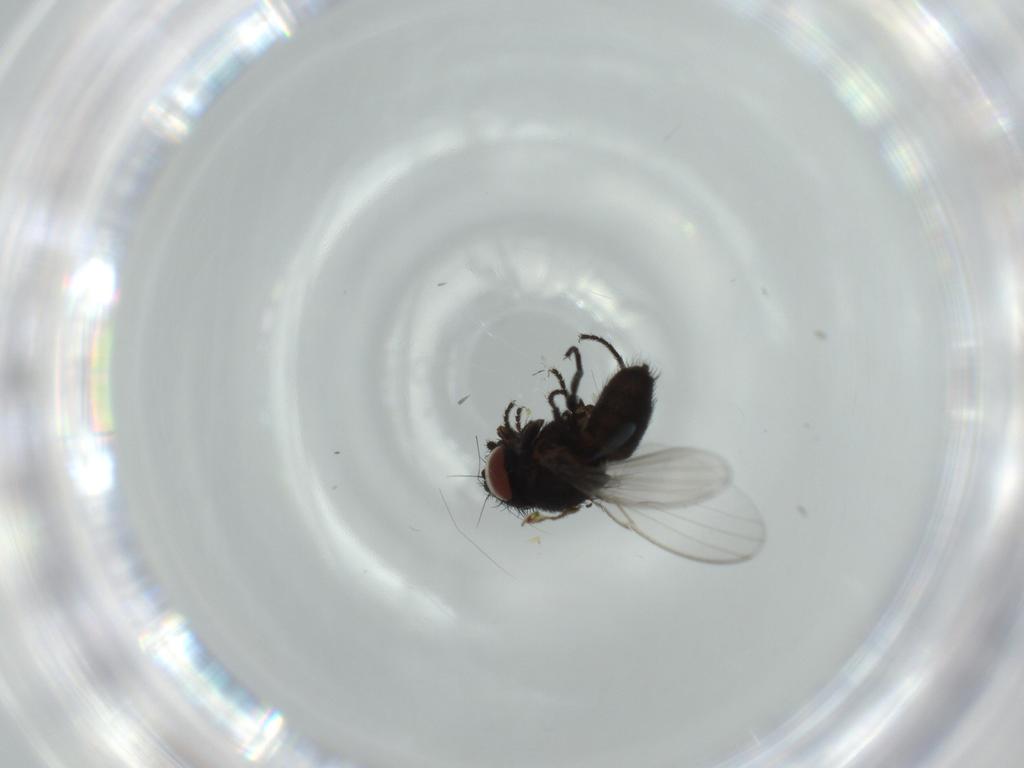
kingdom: Animalia
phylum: Arthropoda
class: Insecta
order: Diptera
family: Milichiidae
